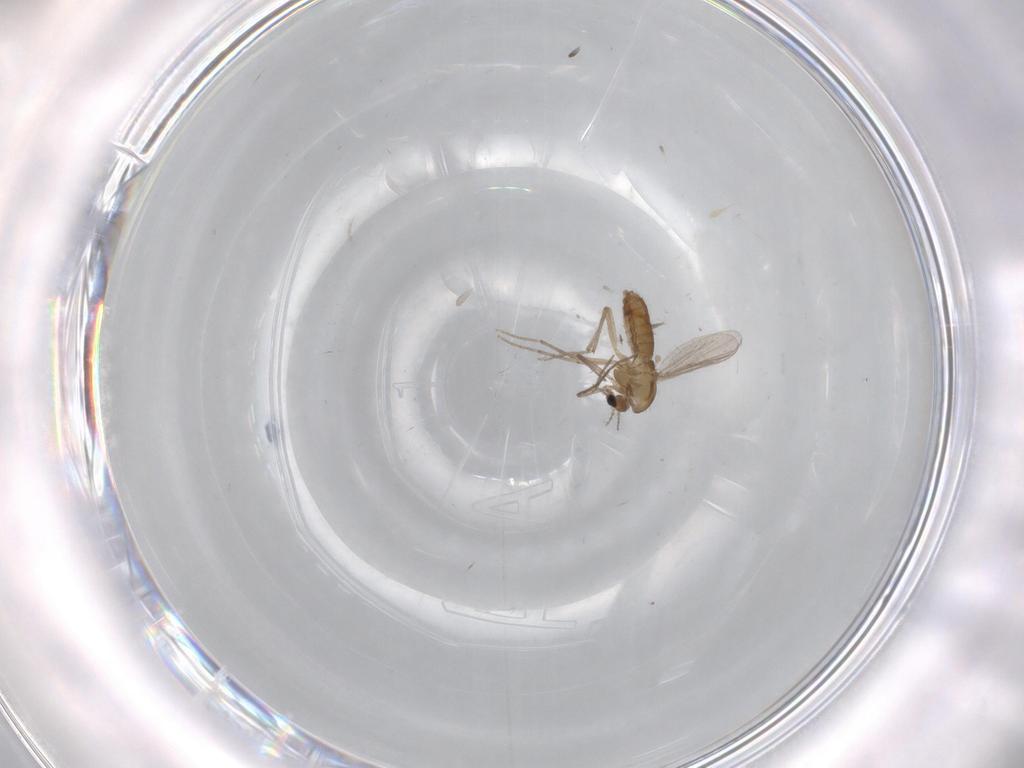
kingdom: Animalia
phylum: Arthropoda
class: Insecta
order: Diptera
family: Chironomidae
